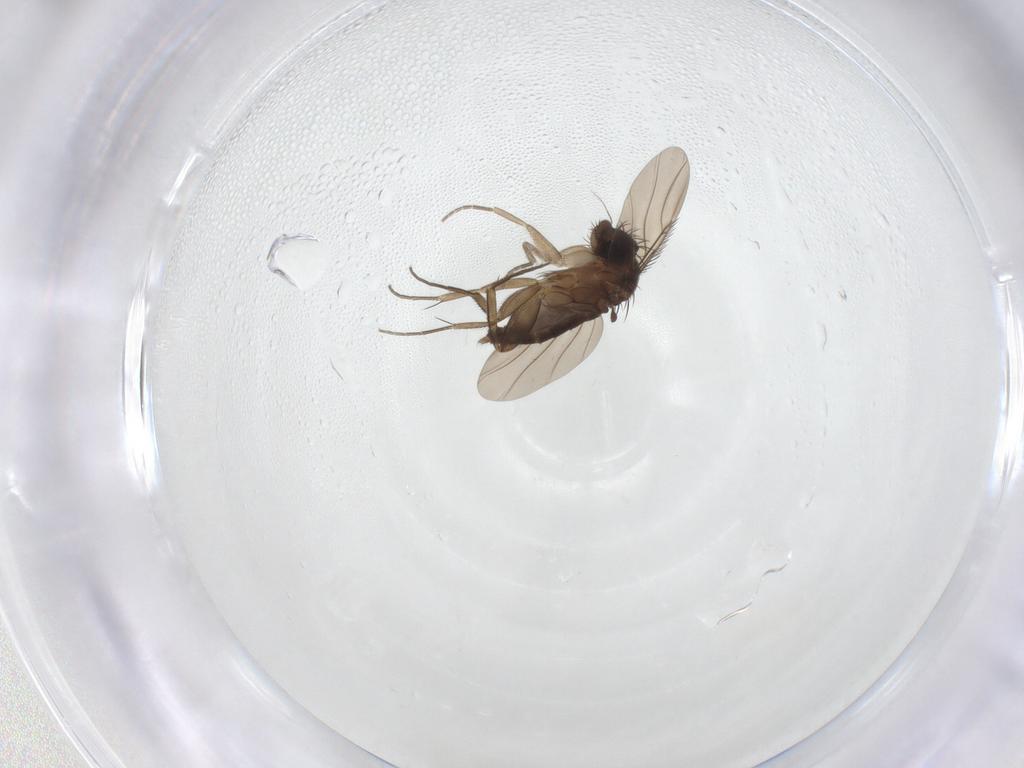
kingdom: Animalia
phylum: Arthropoda
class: Insecta
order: Diptera
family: Phoridae
